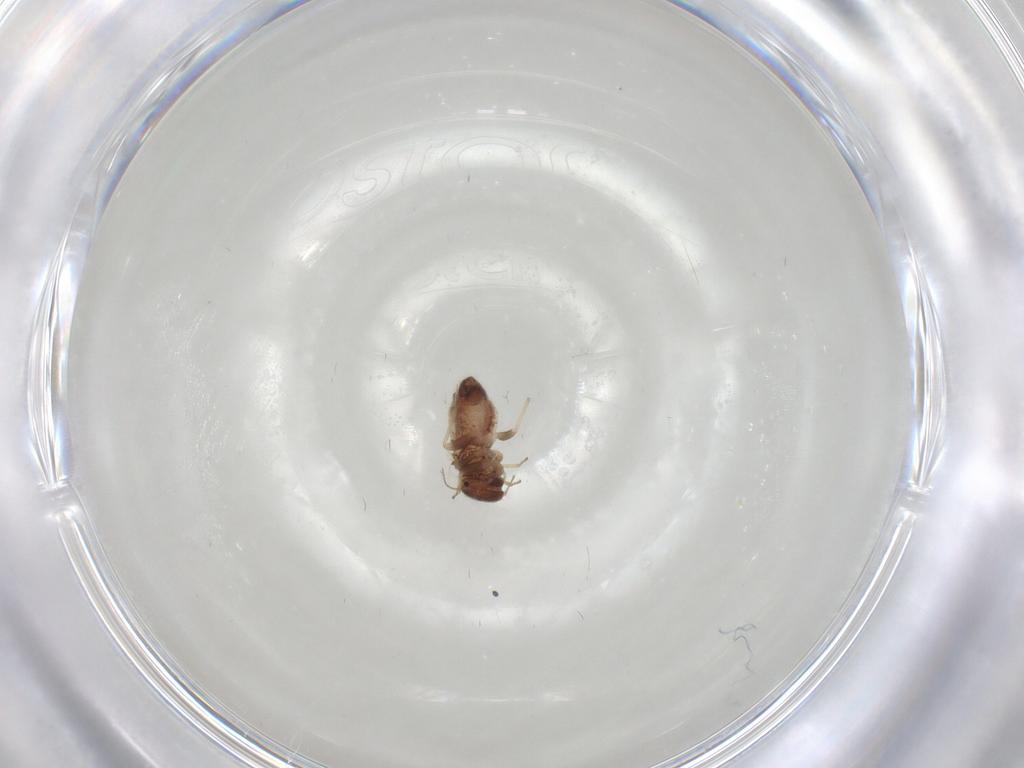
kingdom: Animalia
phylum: Arthropoda
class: Insecta
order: Psocodea
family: Archipsocidae
